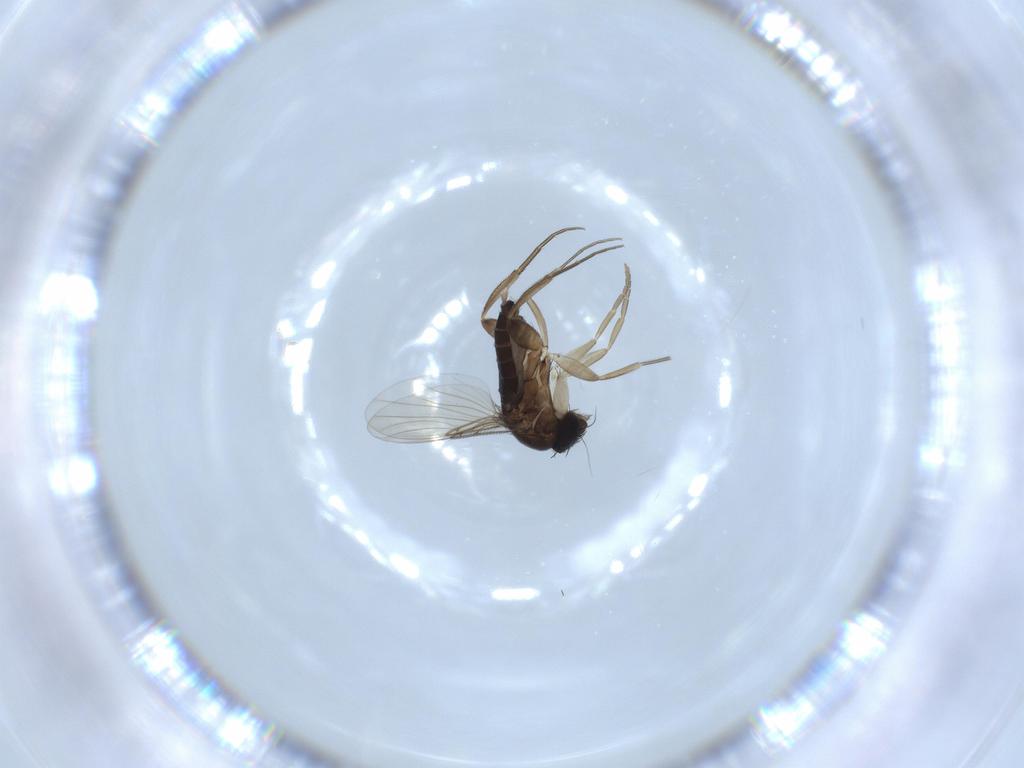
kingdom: Animalia
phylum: Arthropoda
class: Insecta
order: Diptera
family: Phoridae
